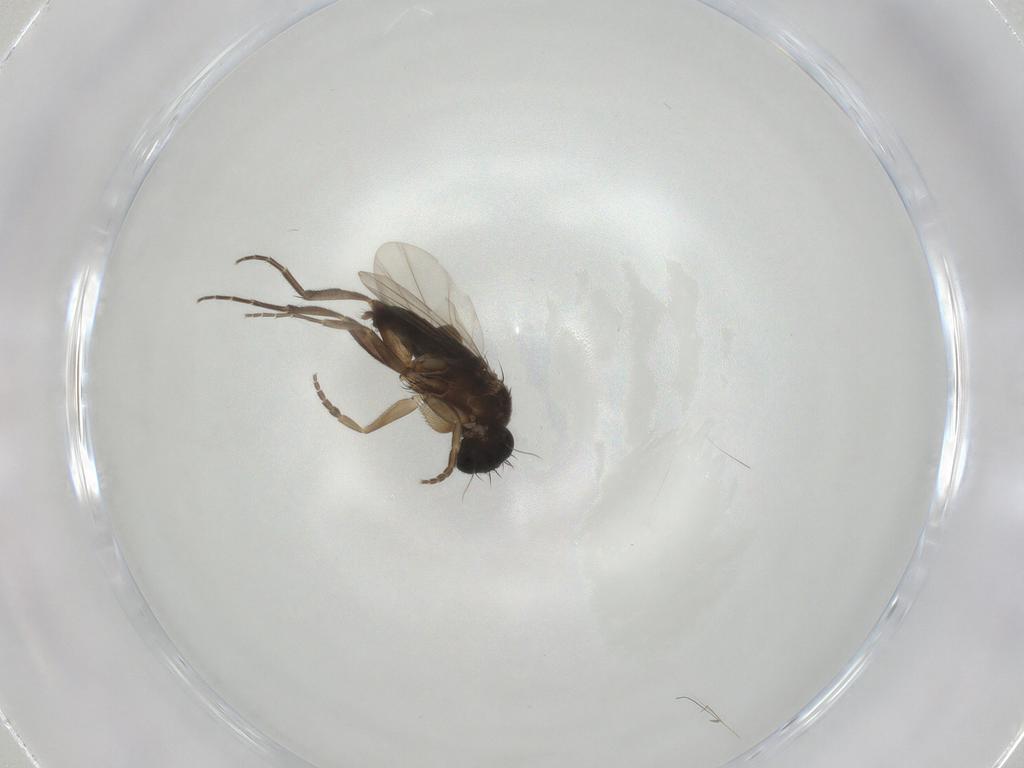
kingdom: Animalia
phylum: Arthropoda
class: Insecta
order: Diptera
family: Phoridae
